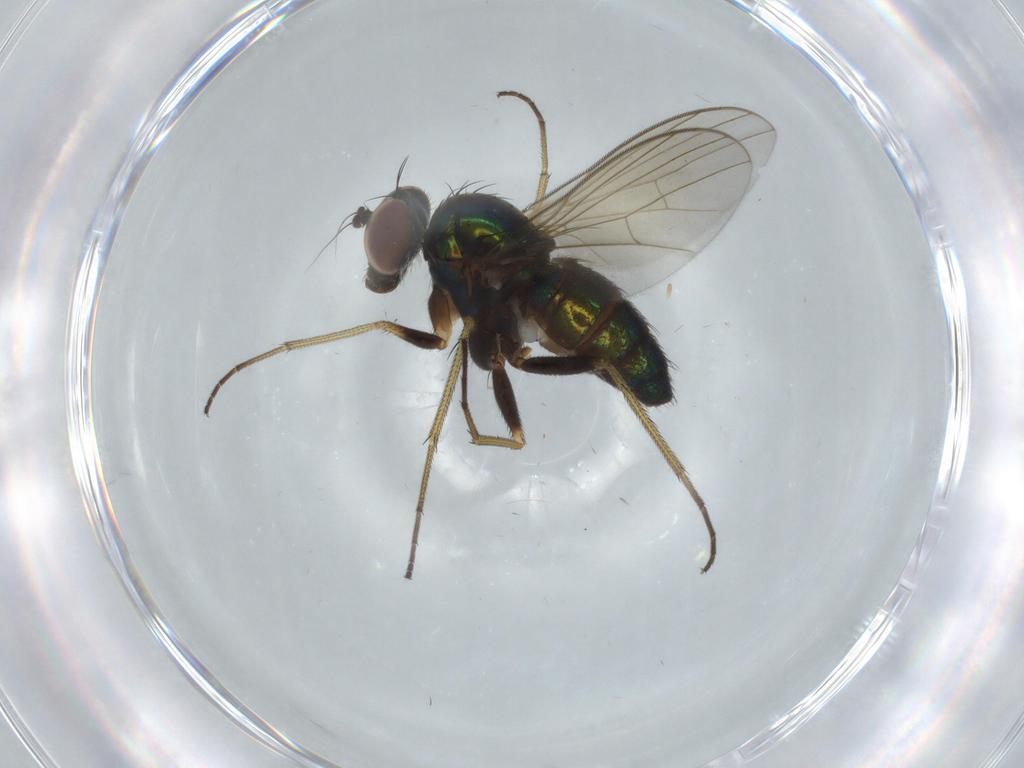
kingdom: Animalia
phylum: Arthropoda
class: Insecta
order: Diptera
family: Dolichopodidae
